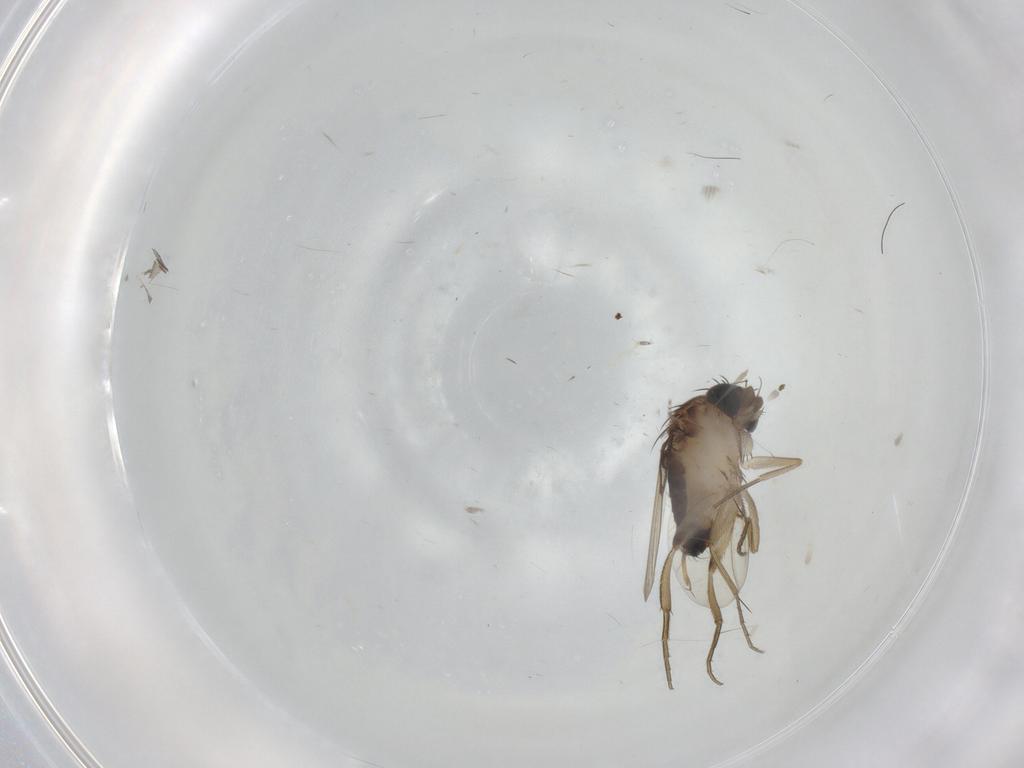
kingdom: Animalia
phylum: Arthropoda
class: Insecta
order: Diptera
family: Phoridae
